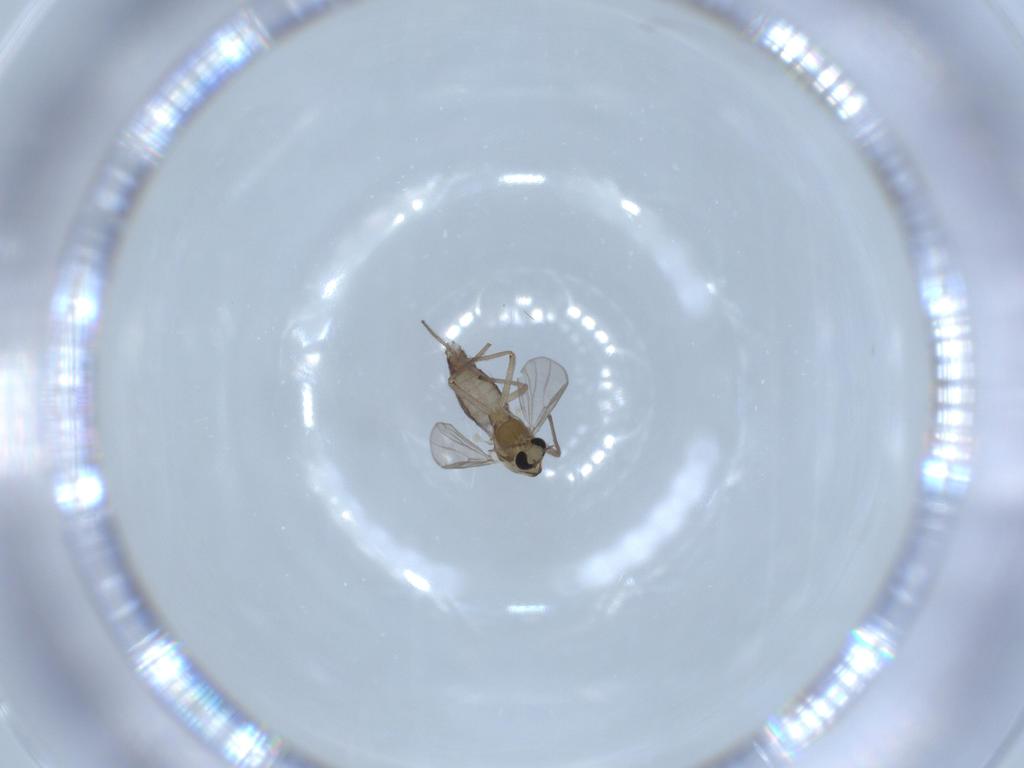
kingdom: Animalia
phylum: Arthropoda
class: Insecta
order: Diptera
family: Chironomidae
